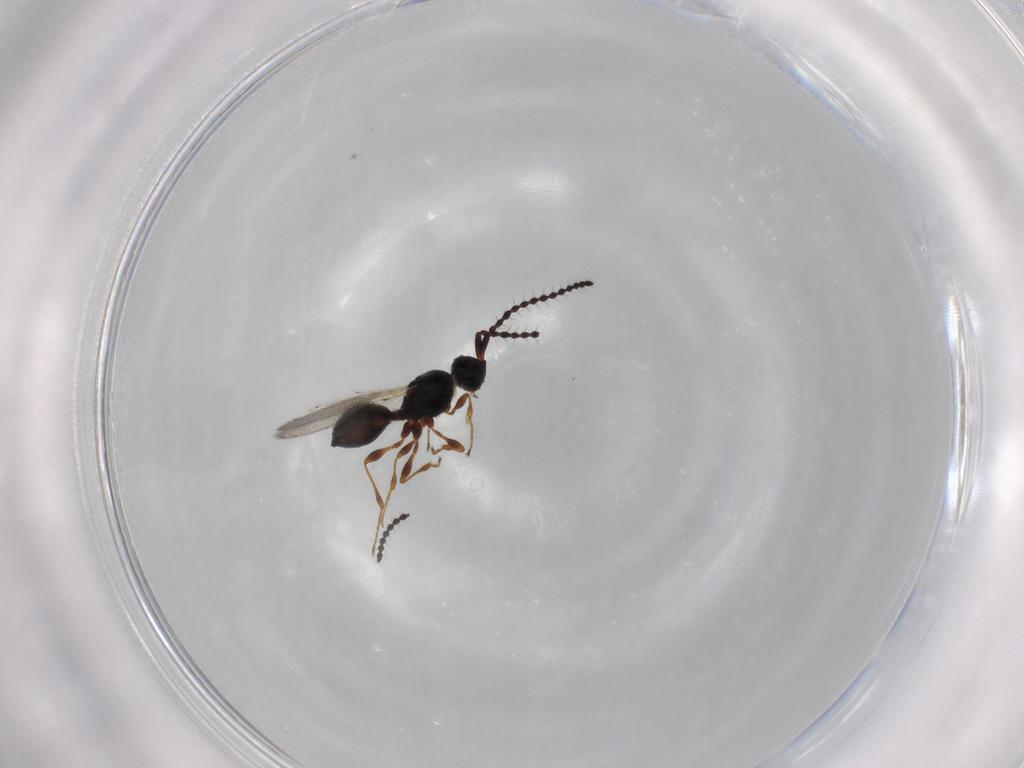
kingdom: Animalia
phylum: Arthropoda
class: Insecta
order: Hymenoptera
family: Diapriidae
